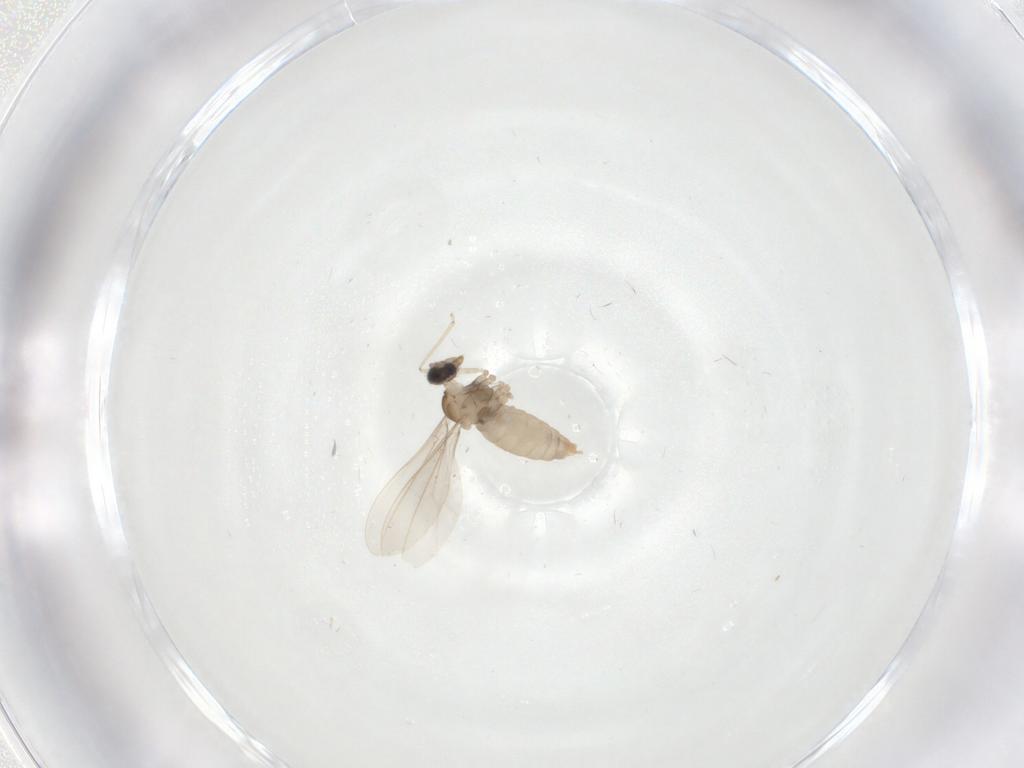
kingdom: Animalia
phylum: Arthropoda
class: Insecta
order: Diptera
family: Cecidomyiidae
